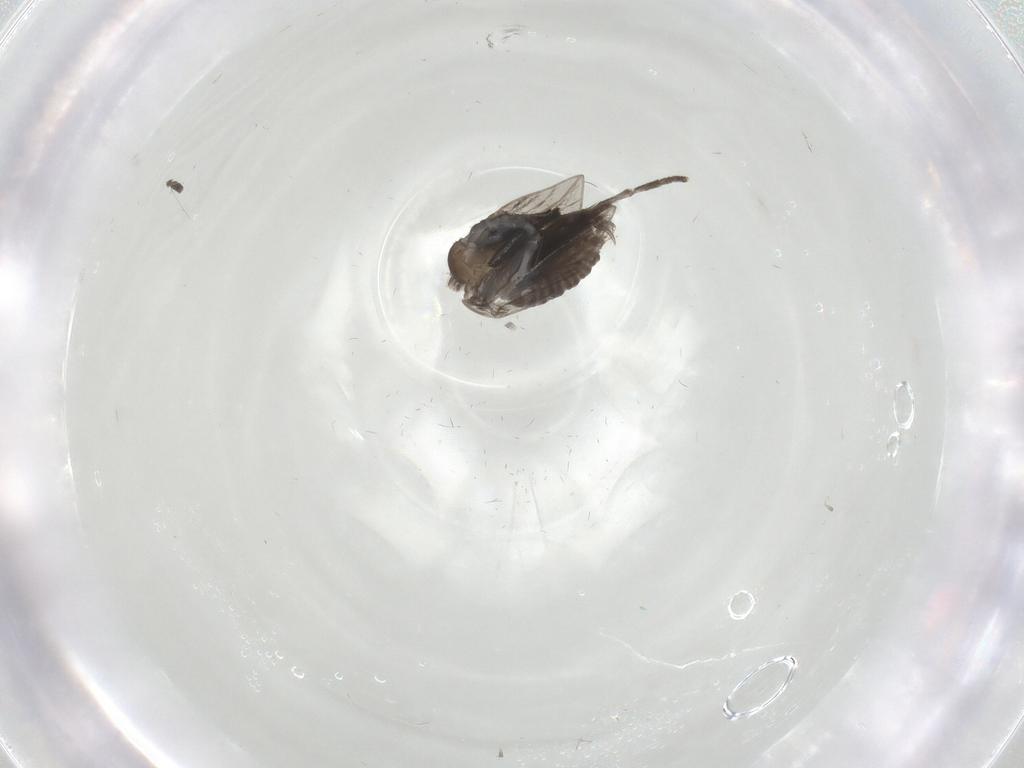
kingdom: Animalia
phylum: Arthropoda
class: Insecta
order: Diptera
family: Psychodidae
